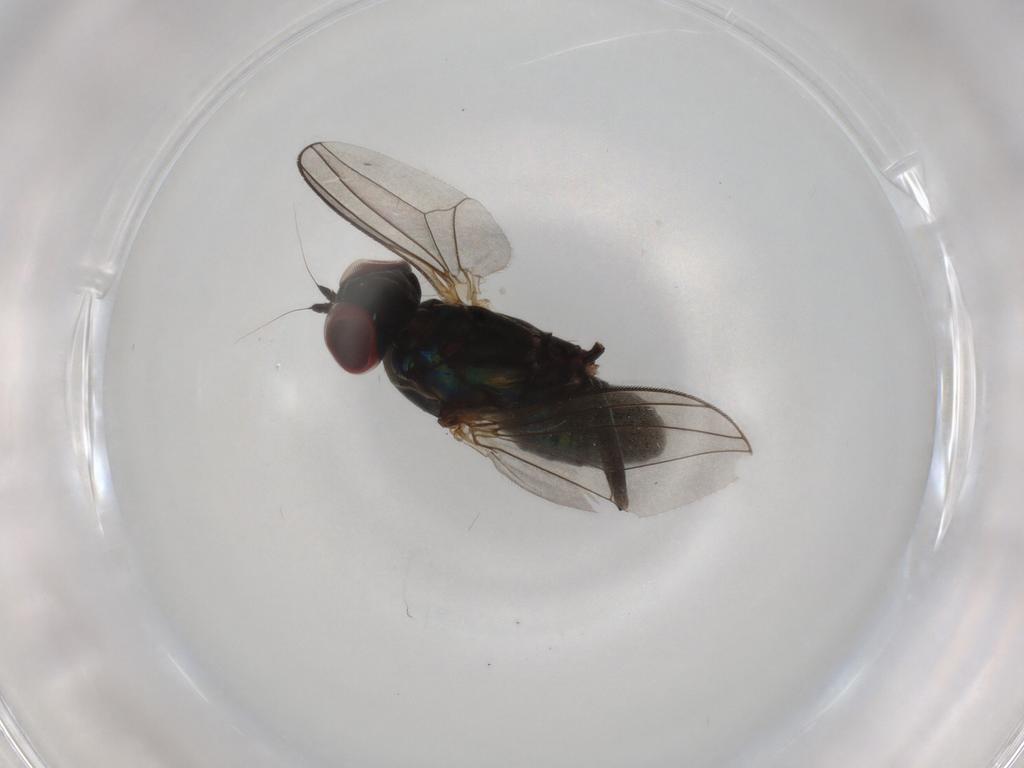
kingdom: Animalia
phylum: Arthropoda
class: Insecta
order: Diptera
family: Dolichopodidae
